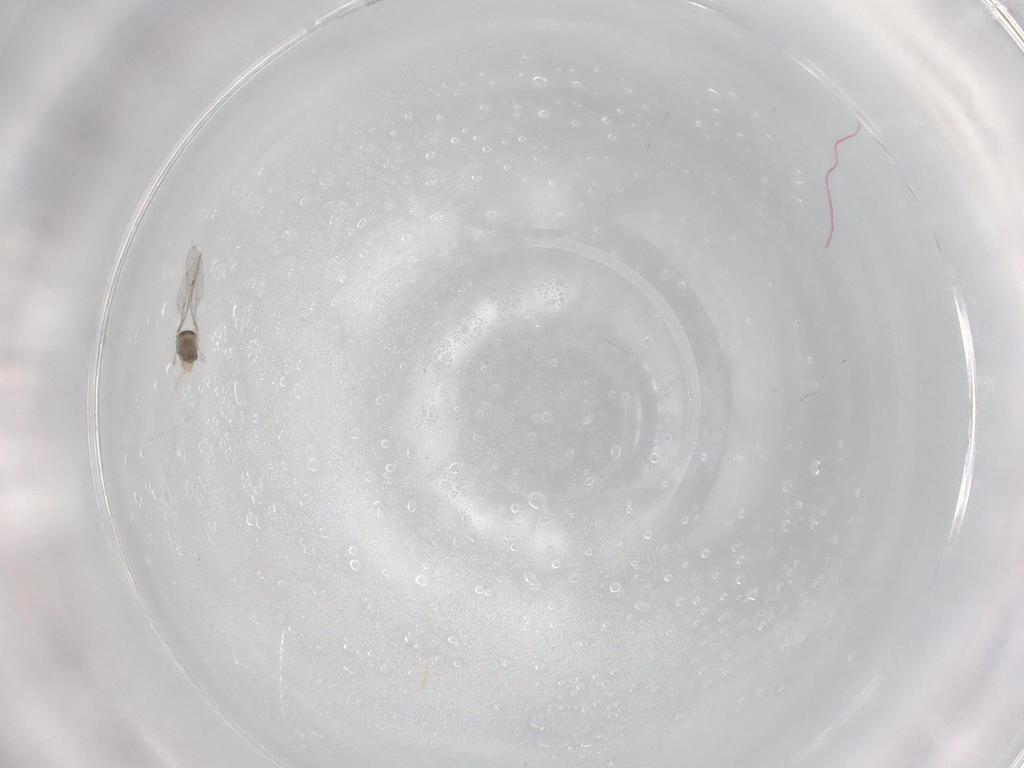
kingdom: Animalia
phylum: Arthropoda
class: Insecta
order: Diptera
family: Cecidomyiidae
